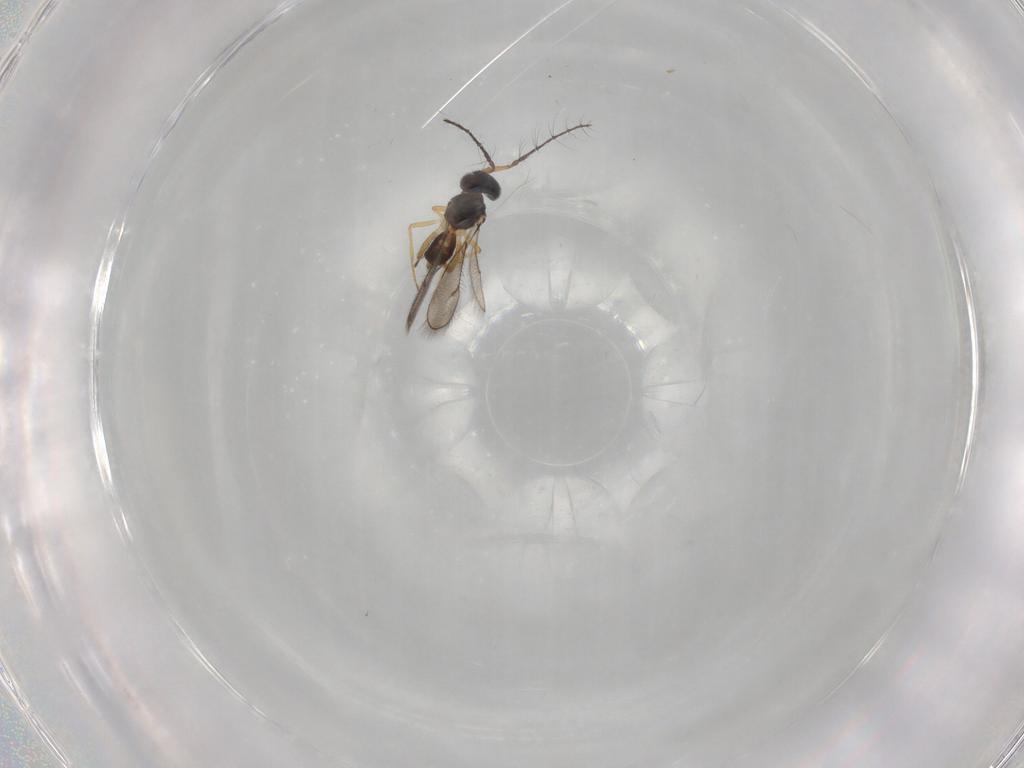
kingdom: Animalia
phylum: Arthropoda
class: Insecta
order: Hymenoptera
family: Eulophidae
